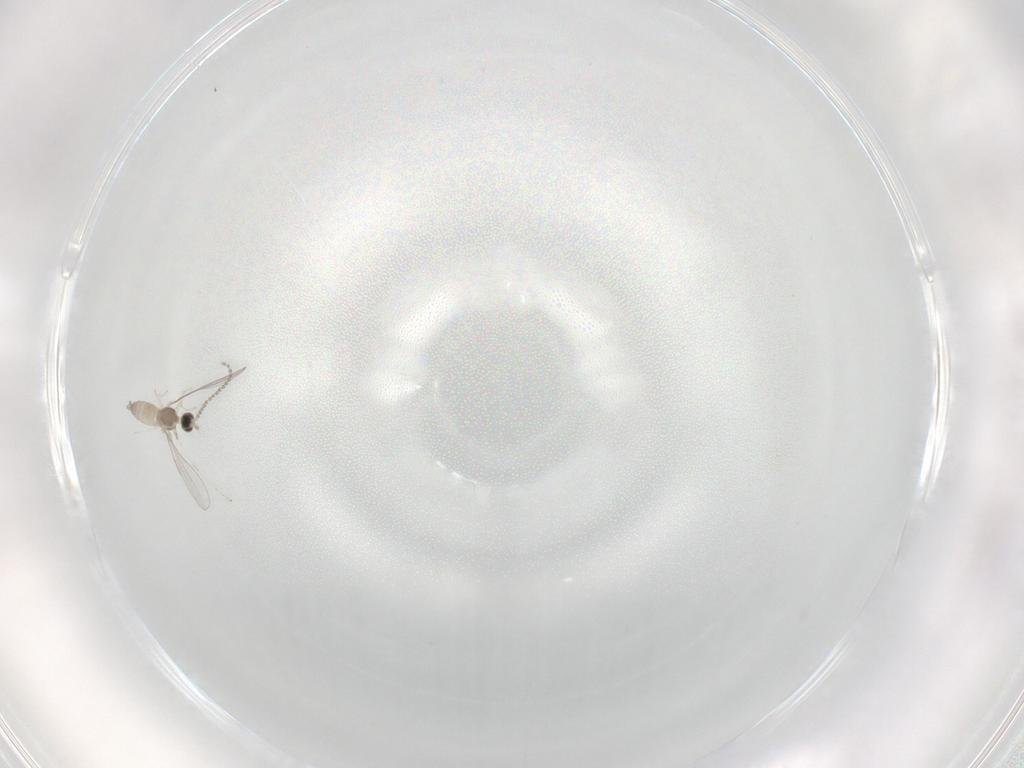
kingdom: Animalia
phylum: Arthropoda
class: Insecta
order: Diptera
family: Cecidomyiidae
